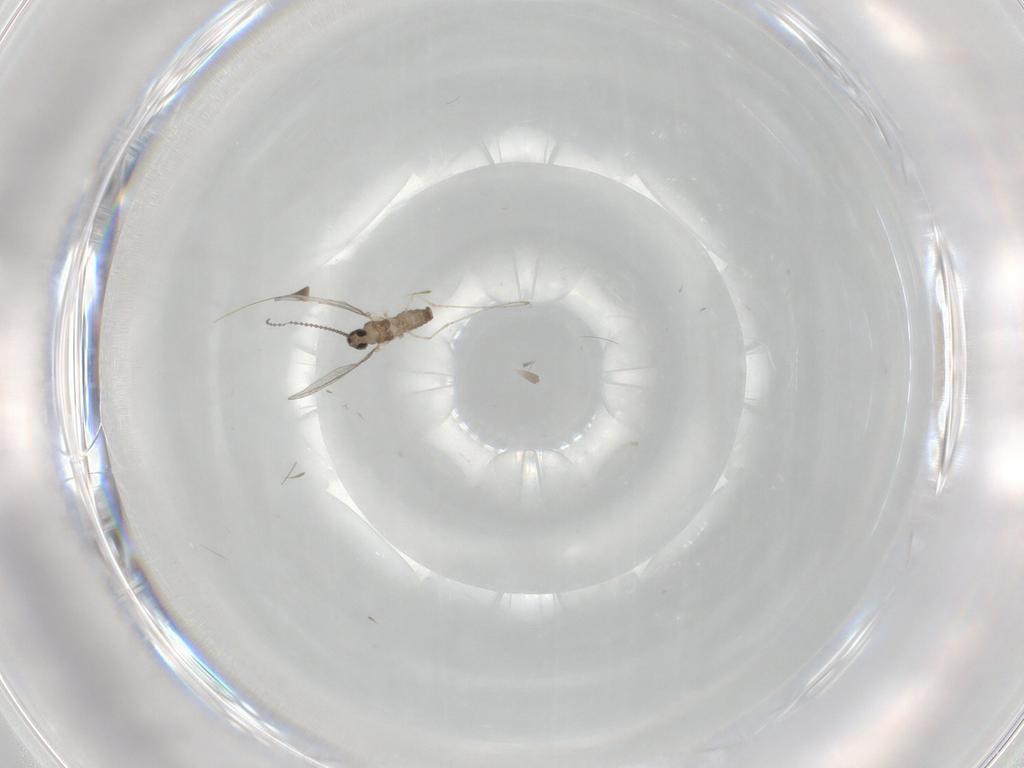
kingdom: Animalia
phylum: Arthropoda
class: Insecta
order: Diptera
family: Cecidomyiidae
